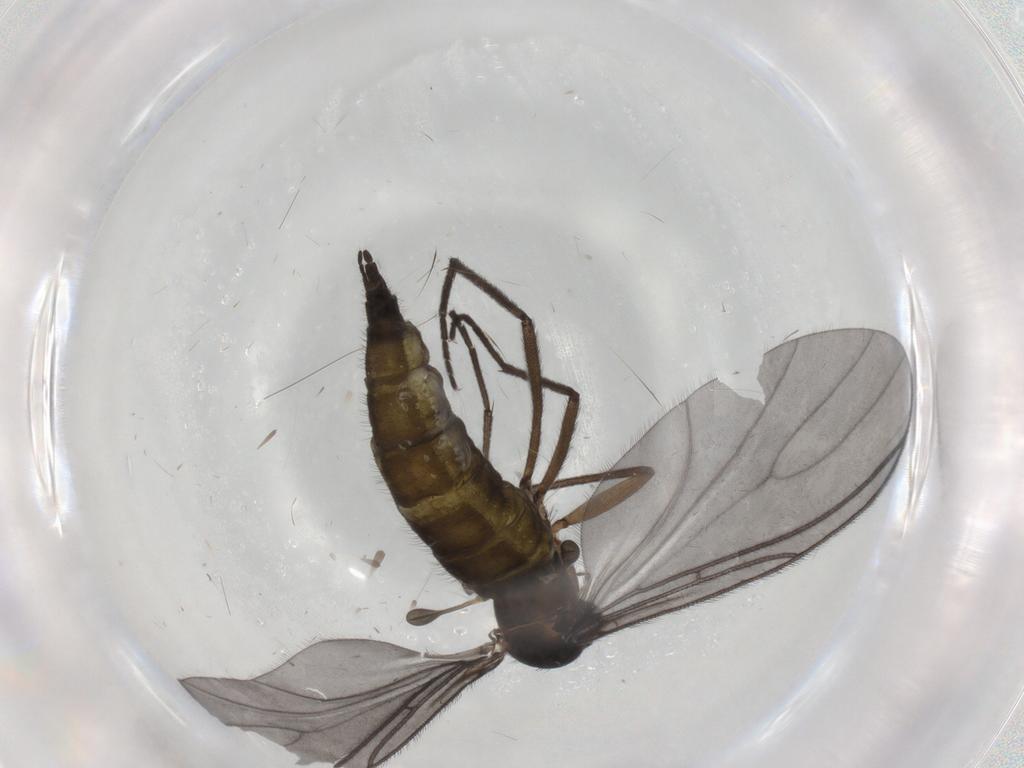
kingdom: Animalia
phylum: Arthropoda
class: Insecta
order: Diptera
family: Sciaridae
